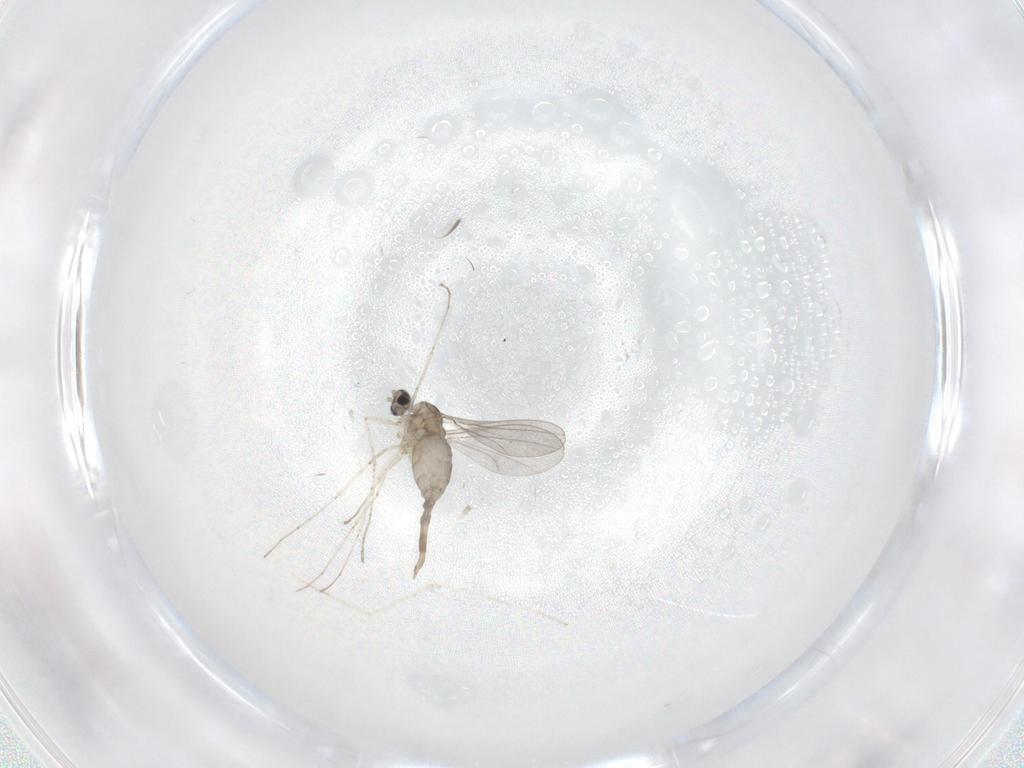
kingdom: Animalia
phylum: Arthropoda
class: Insecta
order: Diptera
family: Cecidomyiidae
